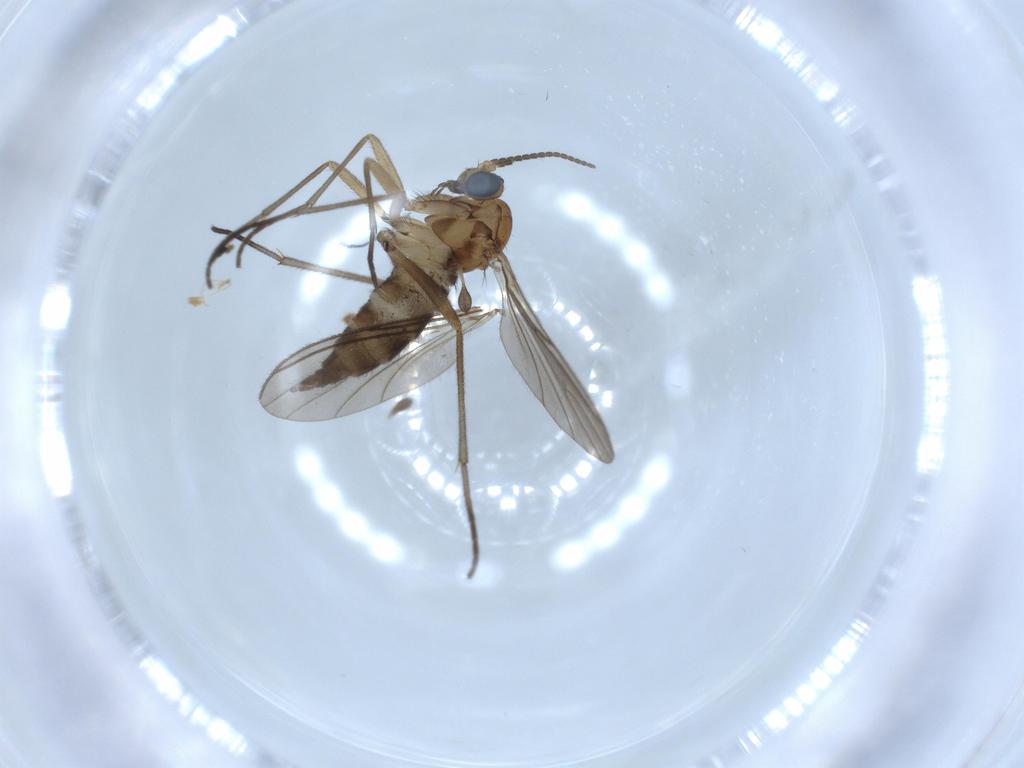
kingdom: Animalia
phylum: Arthropoda
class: Insecta
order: Diptera
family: Sciaridae
